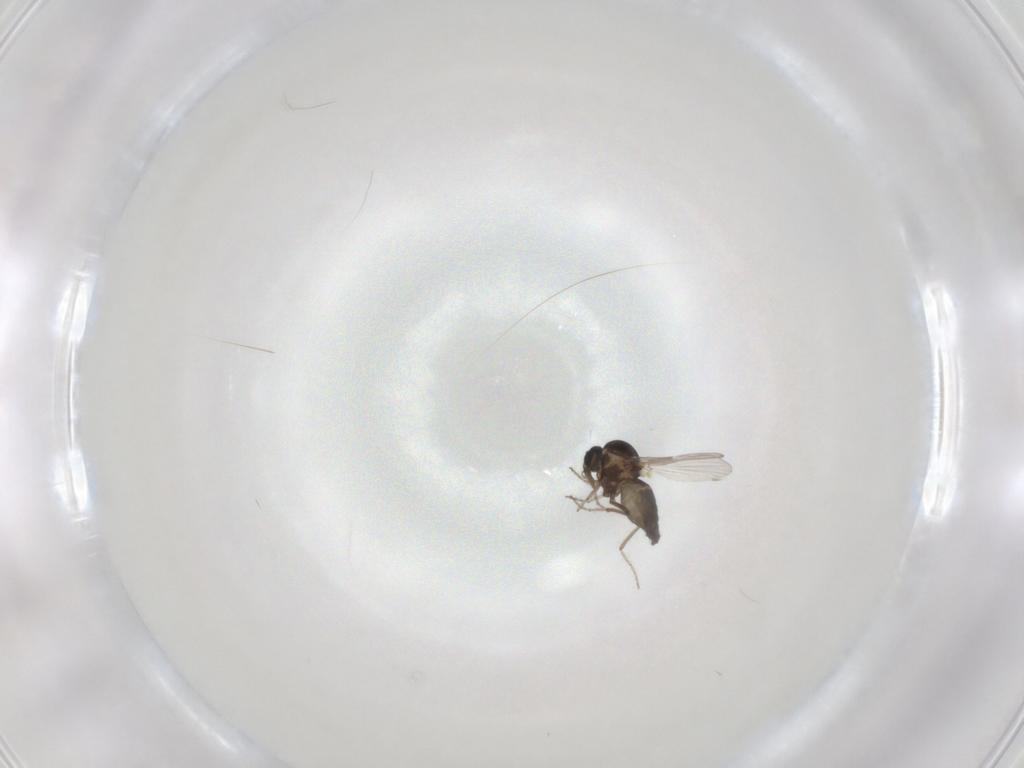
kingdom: Animalia
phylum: Arthropoda
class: Insecta
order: Diptera
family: Ceratopogonidae
